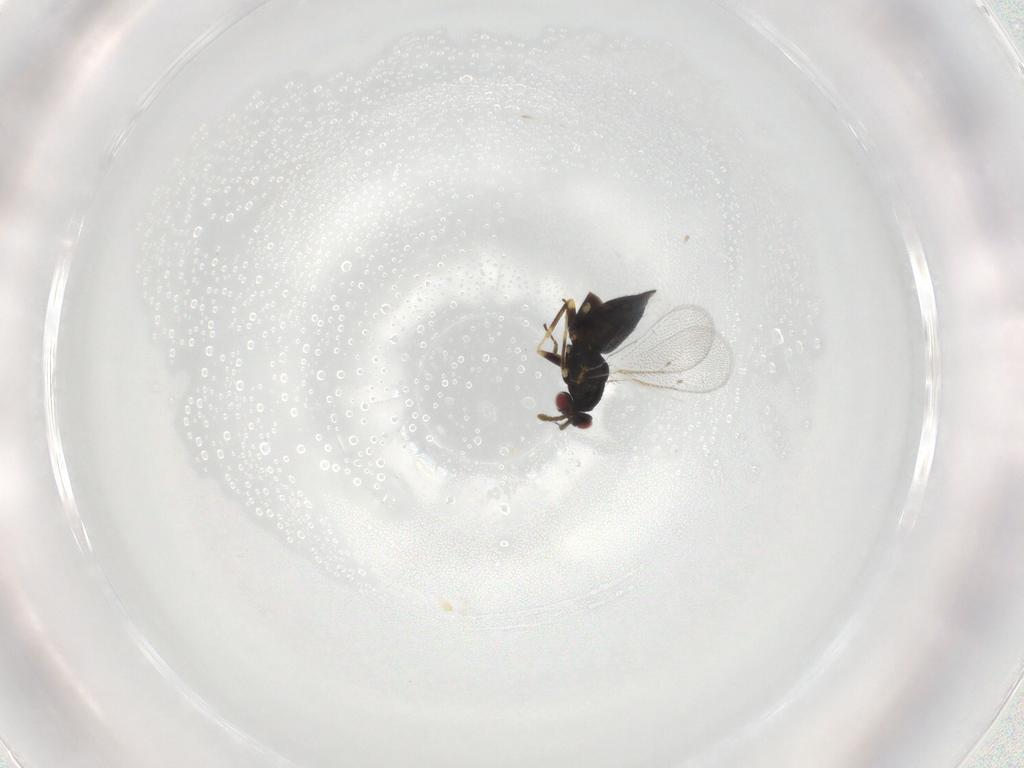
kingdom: Animalia
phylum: Arthropoda
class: Insecta
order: Hymenoptera
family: Eulophidae
